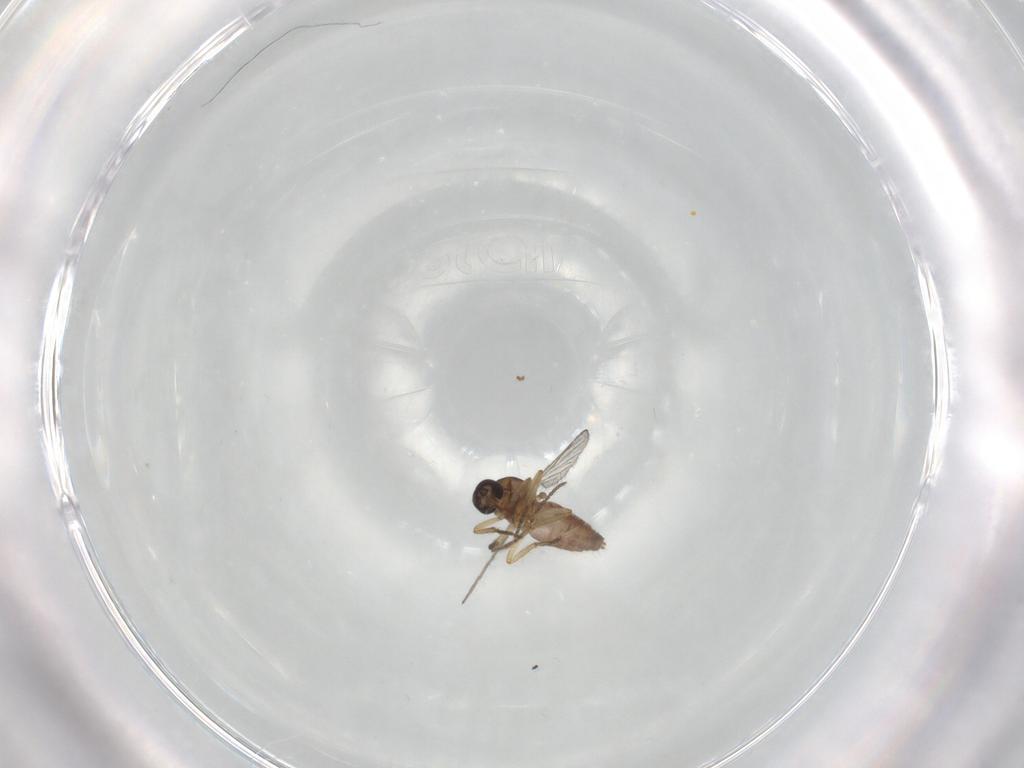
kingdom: Animalia
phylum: Arthropoda
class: Insecta
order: Diptera
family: Ceratopogonidae
